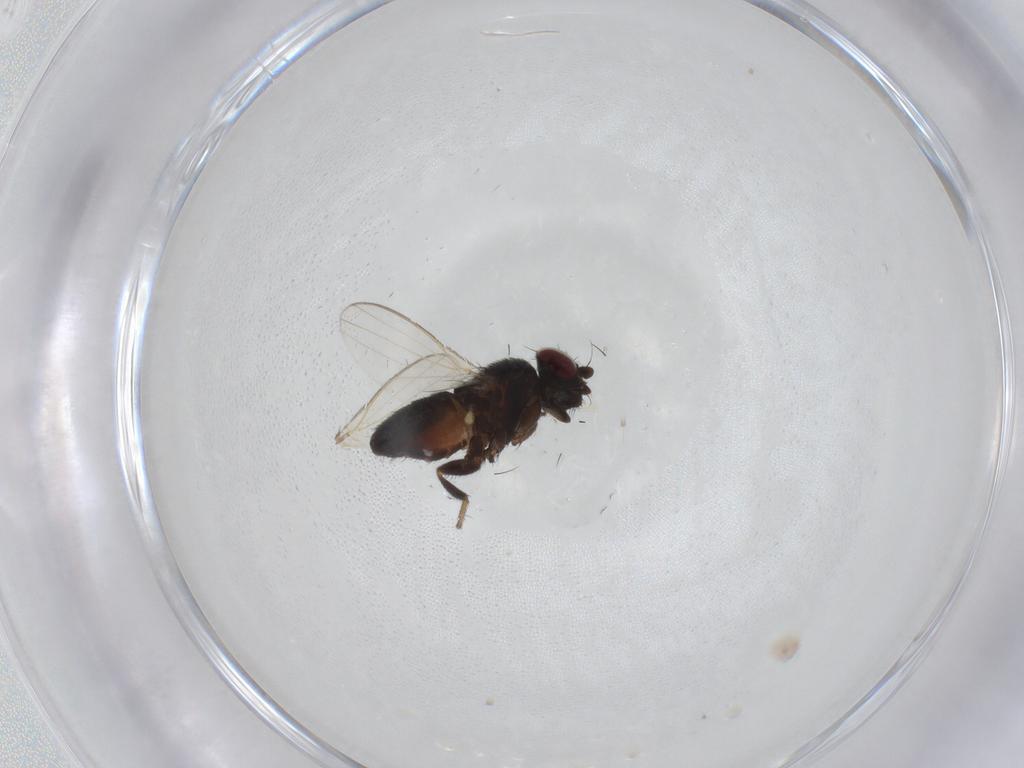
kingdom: Animalia
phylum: Arthropoda
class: Insecta
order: Diptera
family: Milichiidae
